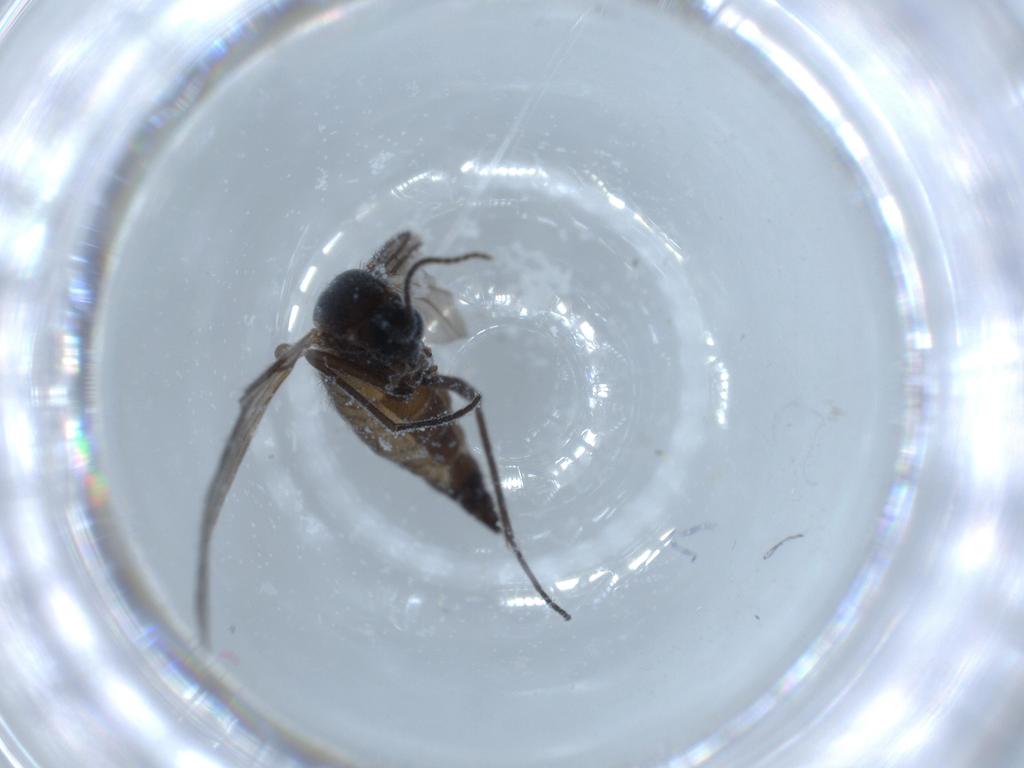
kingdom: Animalia
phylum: Arthropoda
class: Insecta
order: Diptera
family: Sciaridae
